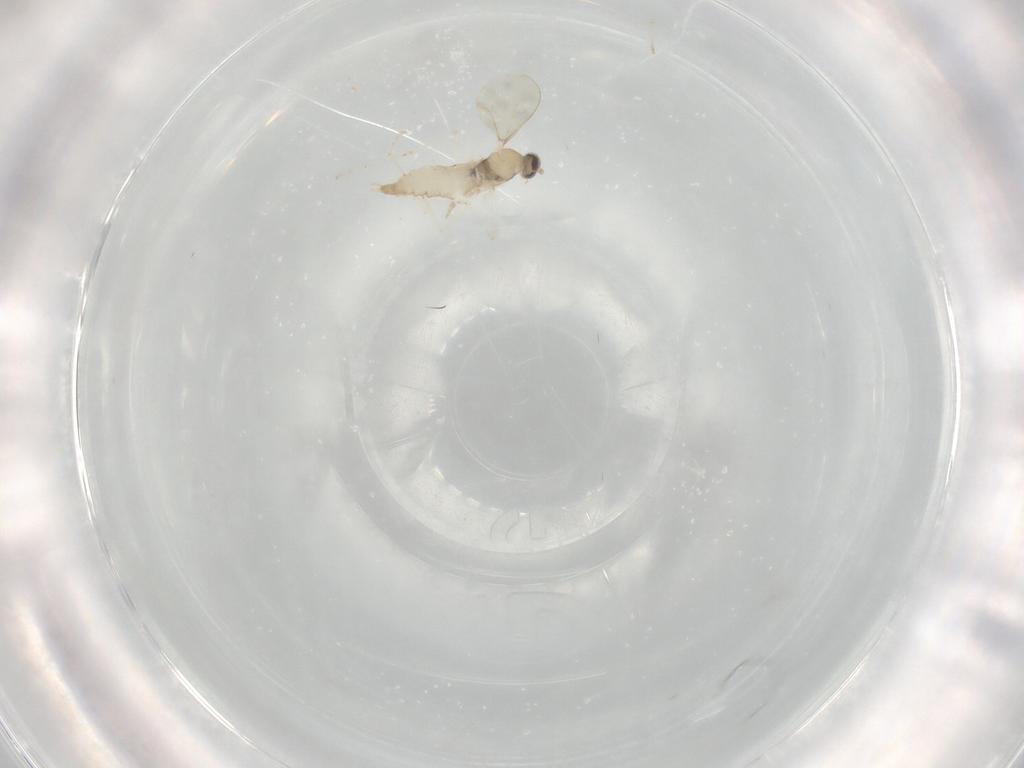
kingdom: Animalia
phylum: Arthropoda
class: Insecta
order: Diptera
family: Cecidomyiidae
